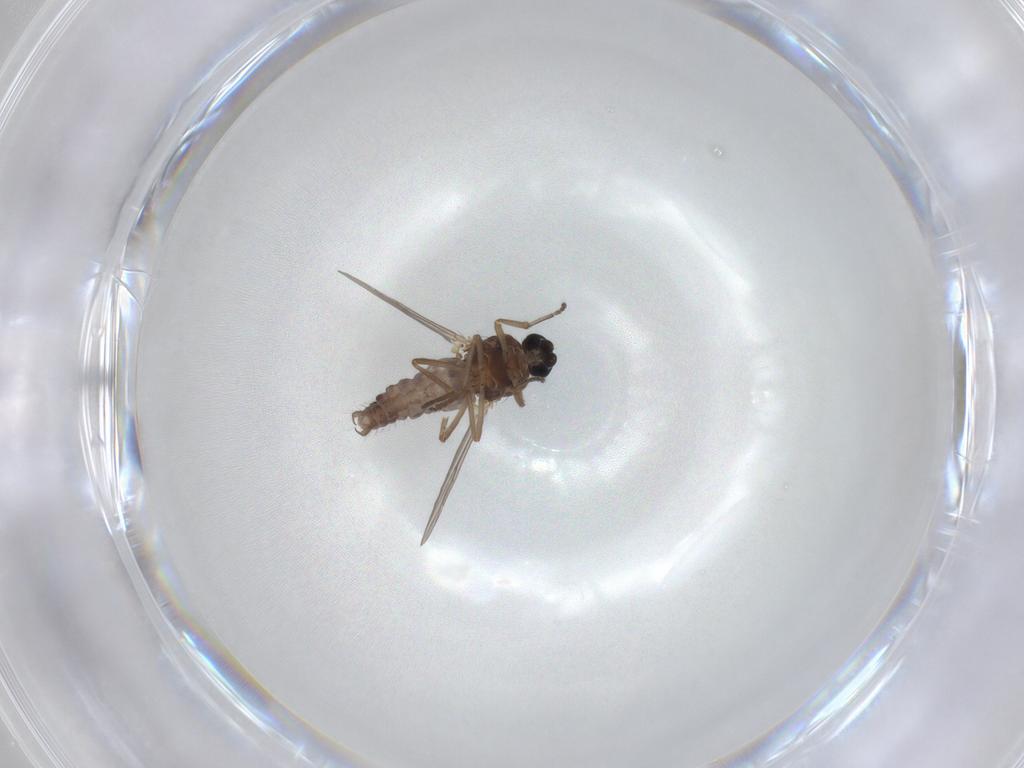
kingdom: Animalia
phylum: Arthropoda
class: Insecta
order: Diptera
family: Ceratopogonidae
